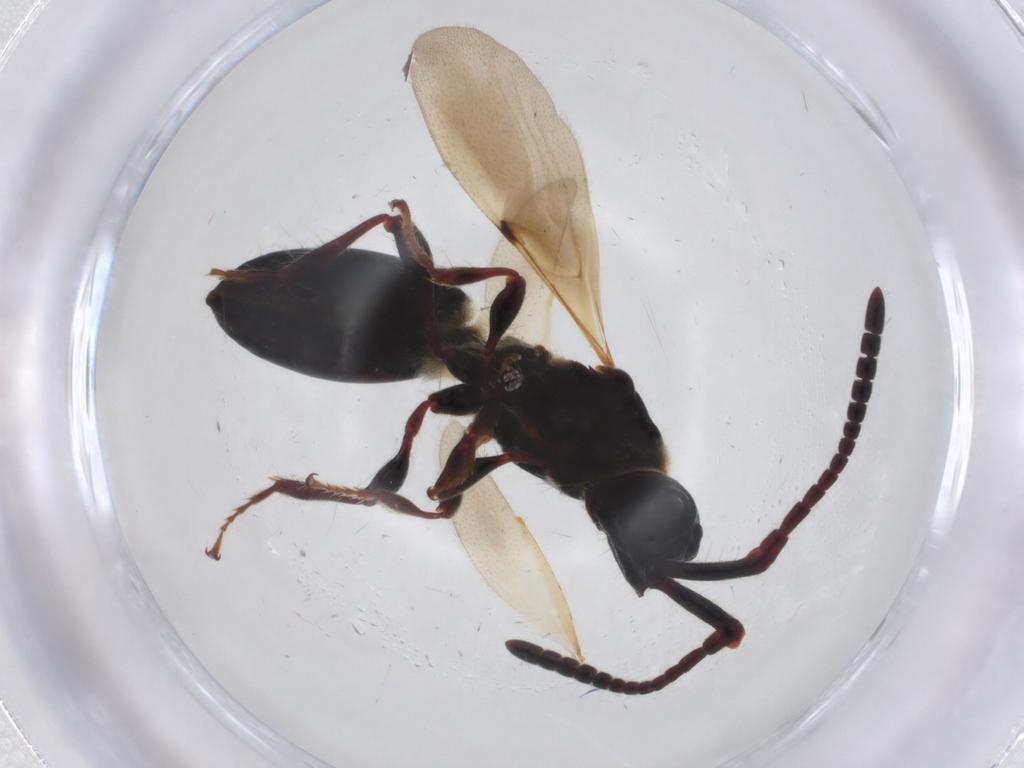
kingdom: Animalia
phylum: Arthropoda
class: Insecta
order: Hymenoptera
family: Diapriidae
